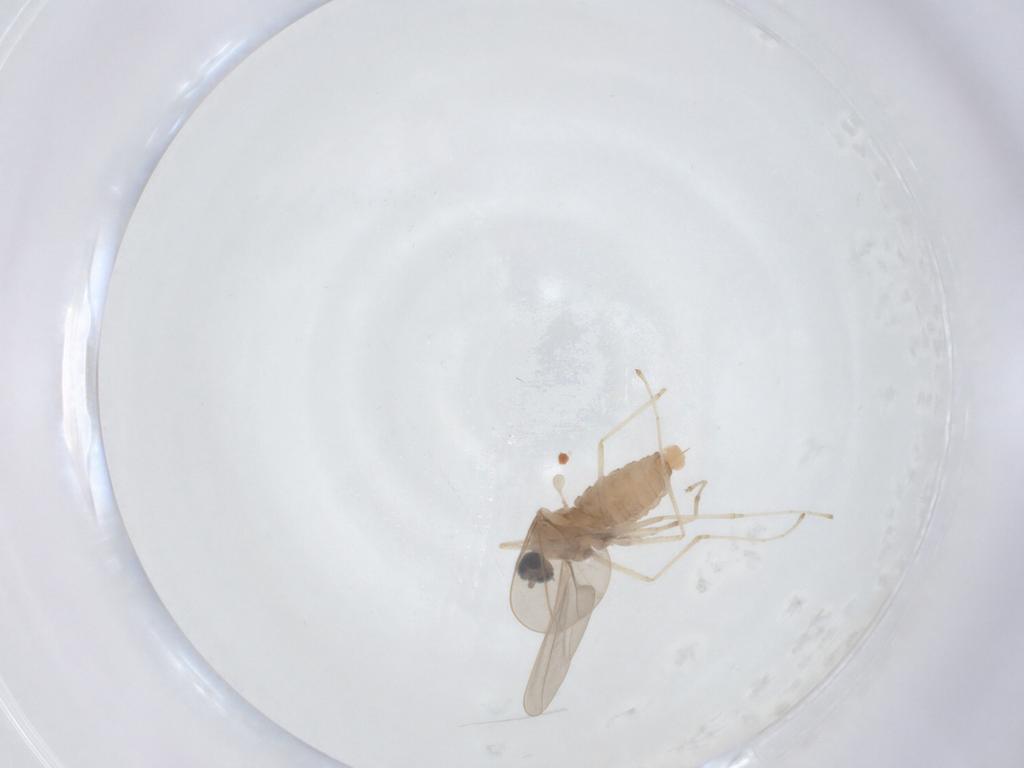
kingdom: Animalia
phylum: Arthropoda
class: Insecta
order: Diptera
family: Cecidomyiidae
